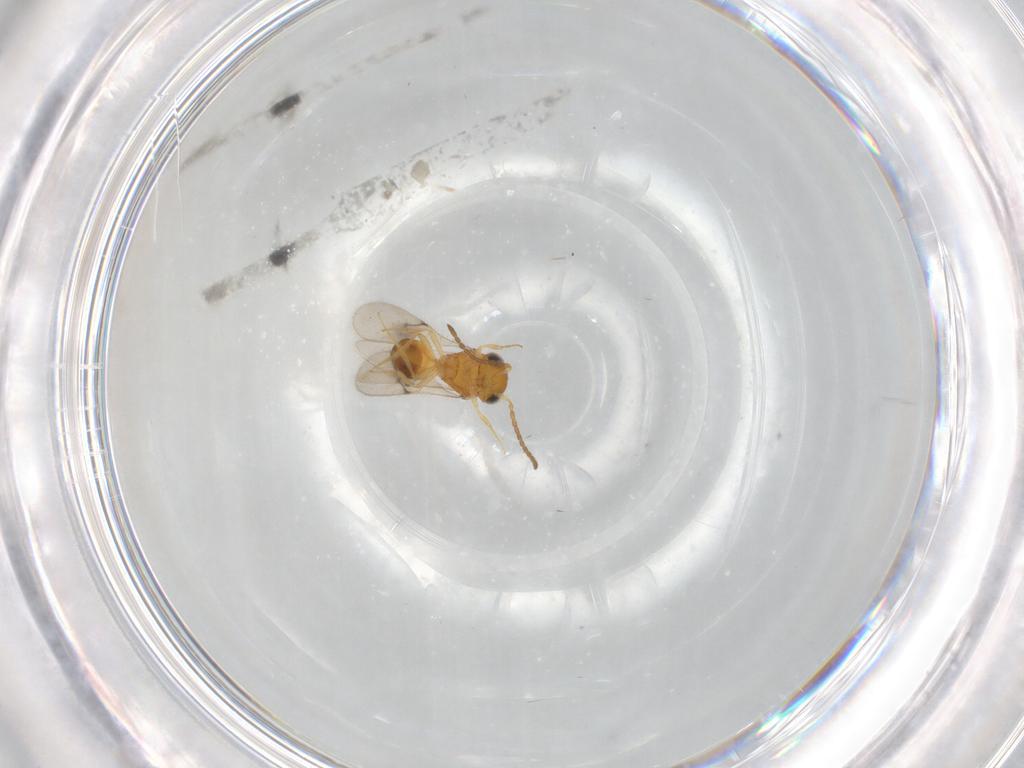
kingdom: Animalia
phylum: Arthropoda
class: Insecta
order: Hymenoptera
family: Scelionidae
